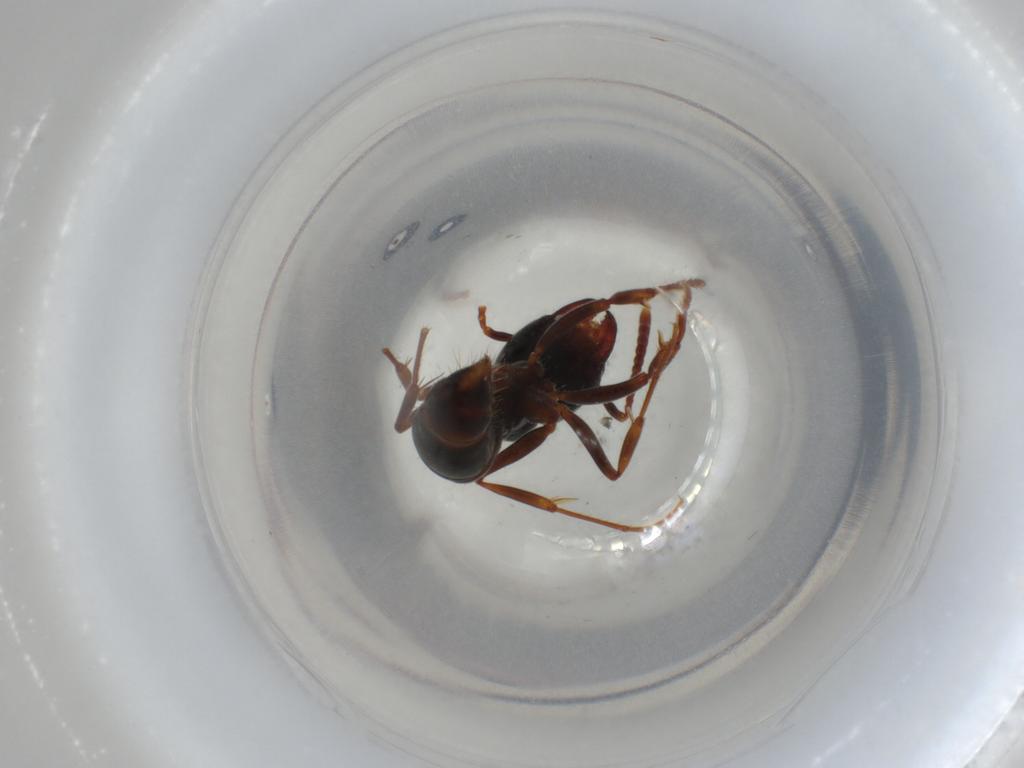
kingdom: Animalia
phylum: Arthropoda
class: Insecta
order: Hymenoptera
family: Formicidae
